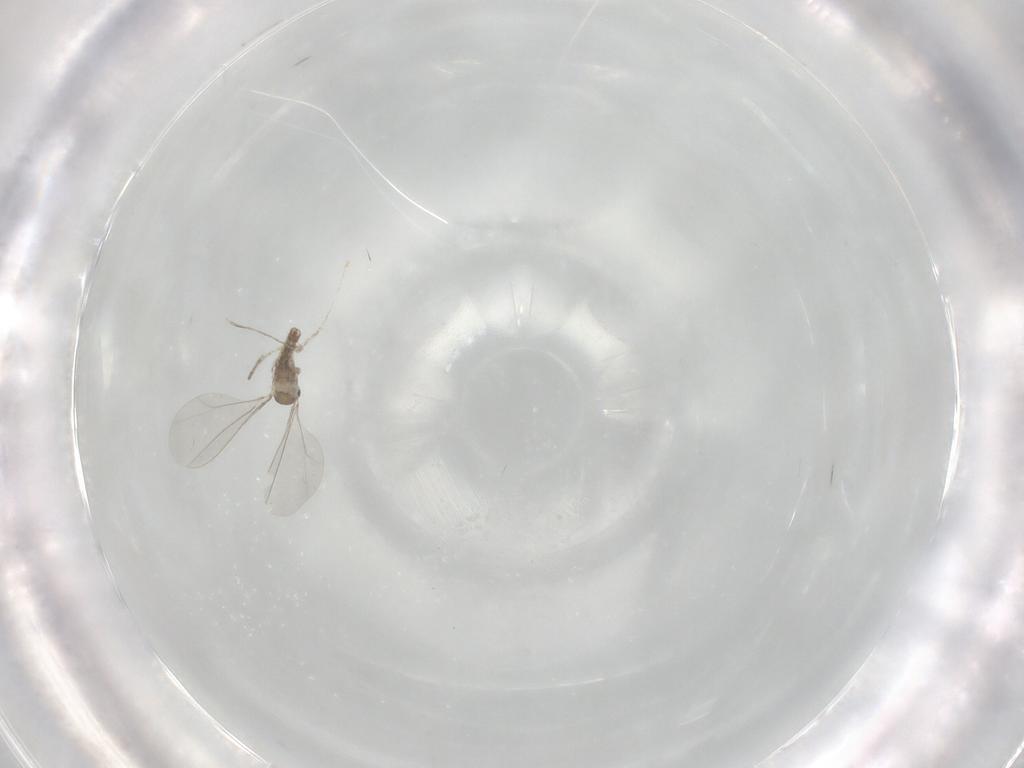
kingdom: Animalia
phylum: Arthropoda
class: Insecta
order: Diptera
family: Cecidomyiidae
